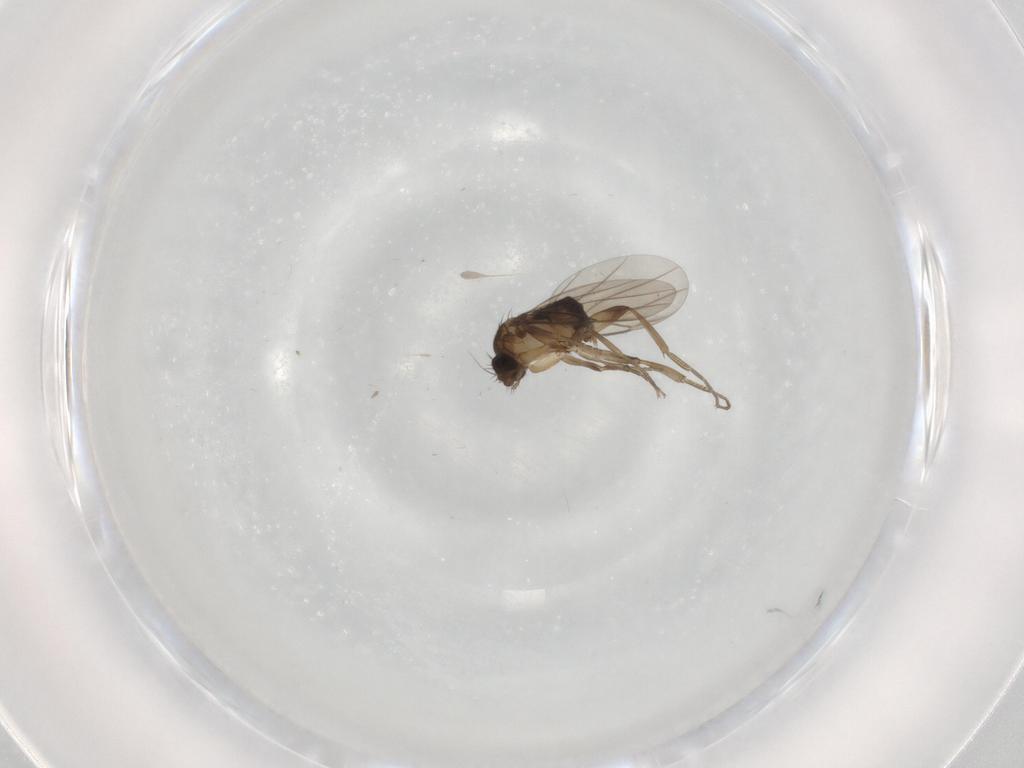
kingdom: Animalia
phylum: Arthropoda
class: Insecta
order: Diptera
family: Phoridae
